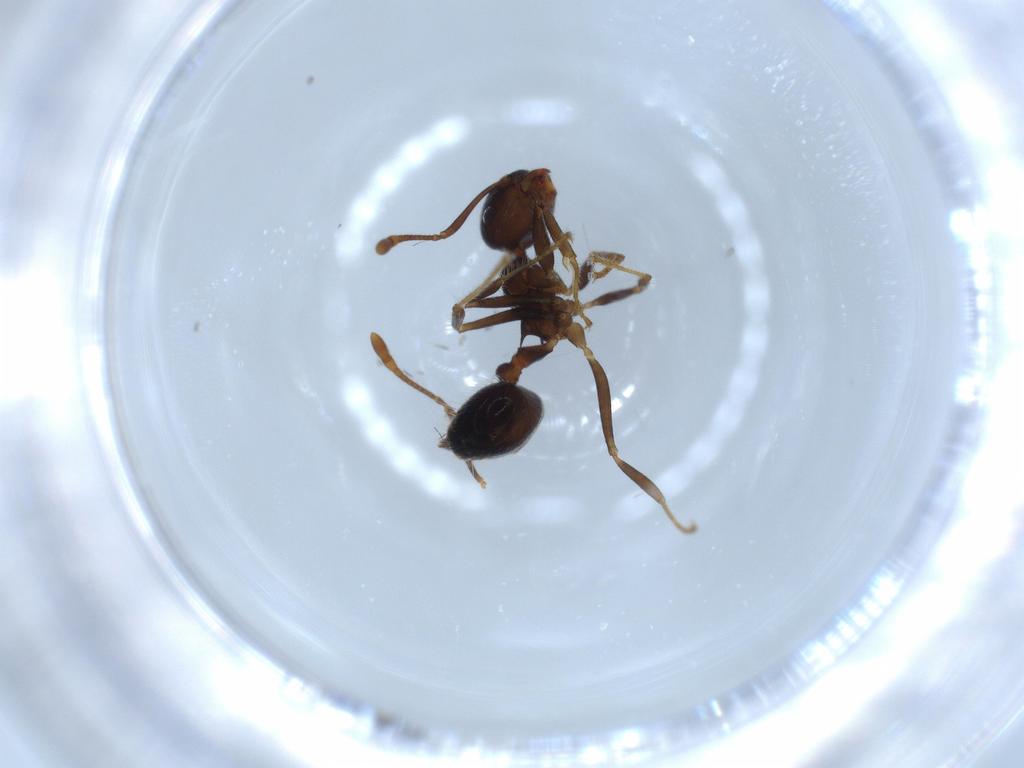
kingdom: Animalia
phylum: Arthropoda
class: Insecta
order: Hymenoptera
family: Formicidae
